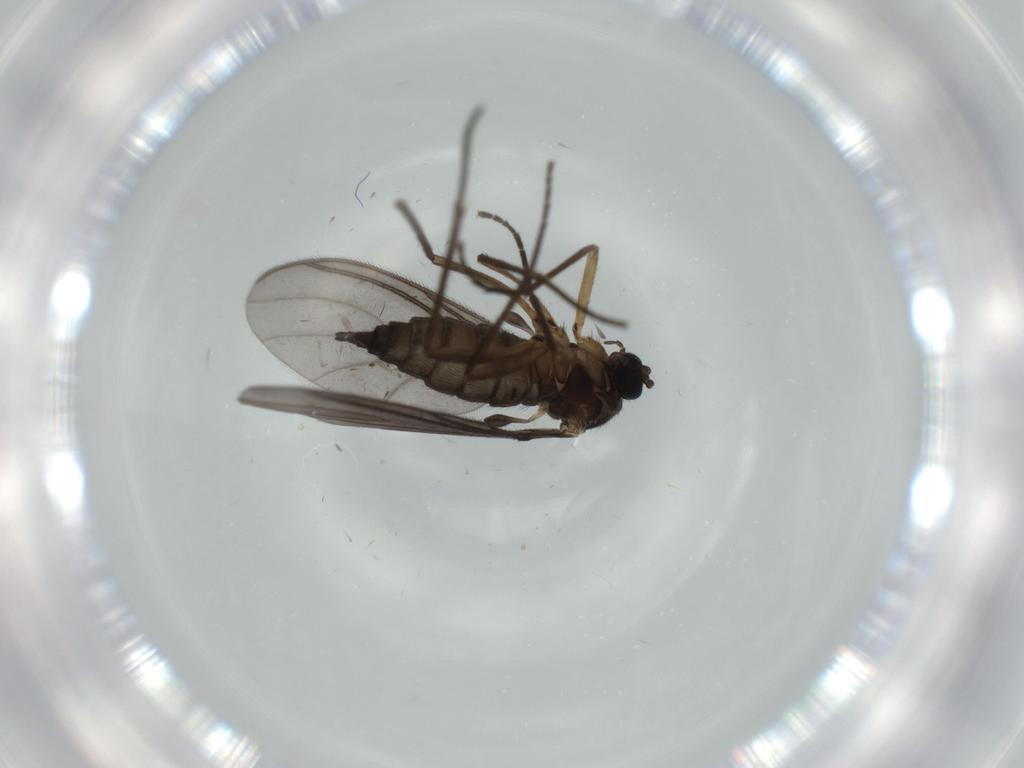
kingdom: Animalia
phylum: Arthropoda
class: Insecta
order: Diptera
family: Sciaridae
